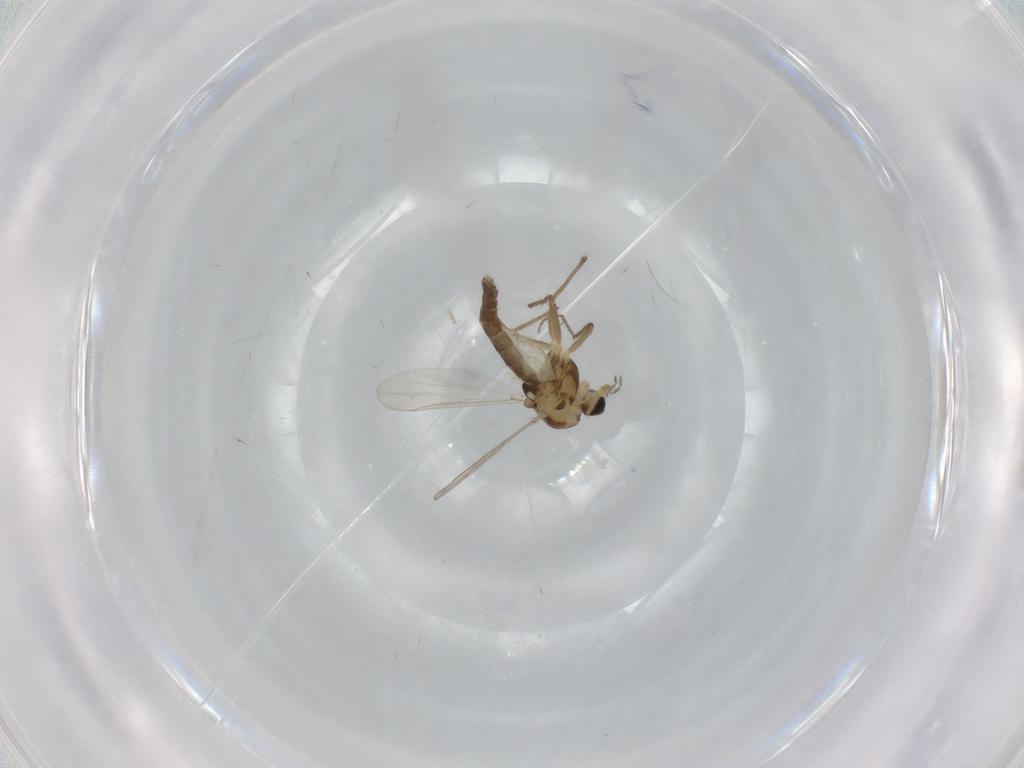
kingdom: Animalia
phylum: Arthropoda
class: Insecta
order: Diptera
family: Chironomidae
